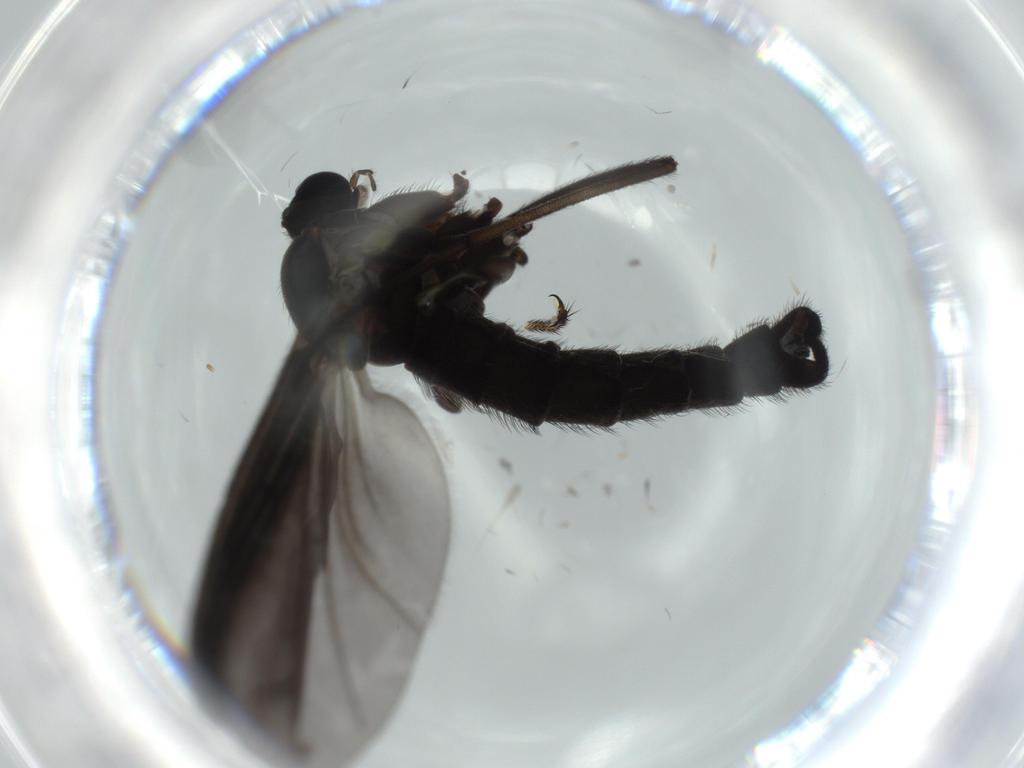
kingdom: Animalia
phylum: Arthropoda
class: Insecta
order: Diptera
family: Sciaridae
